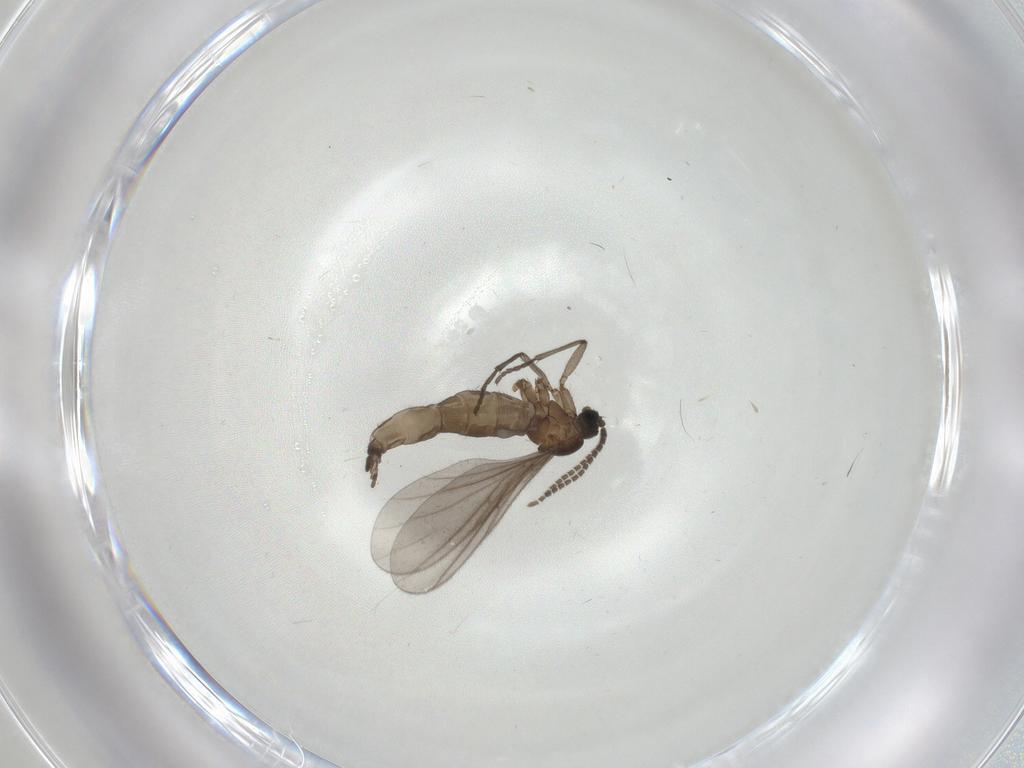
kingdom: Animalia
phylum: Arthropoda
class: Insecta
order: Diptera
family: Sciaridae
